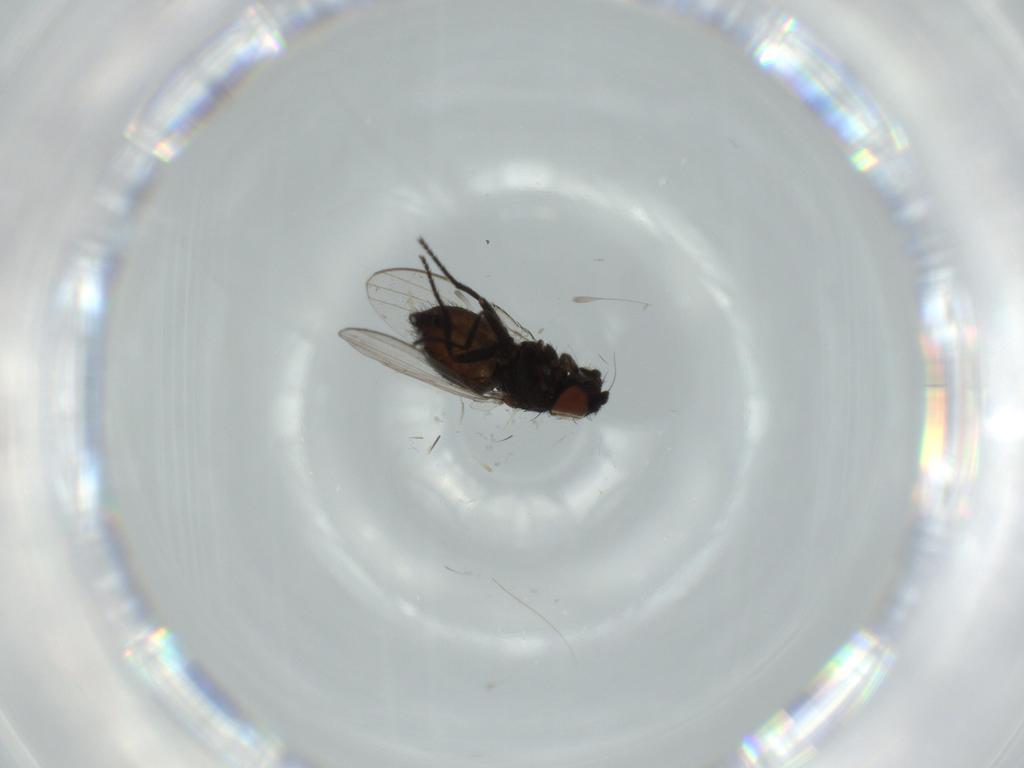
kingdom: Animalia
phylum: Arthropoda
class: Insecta
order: Diptera
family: Milichiidae
